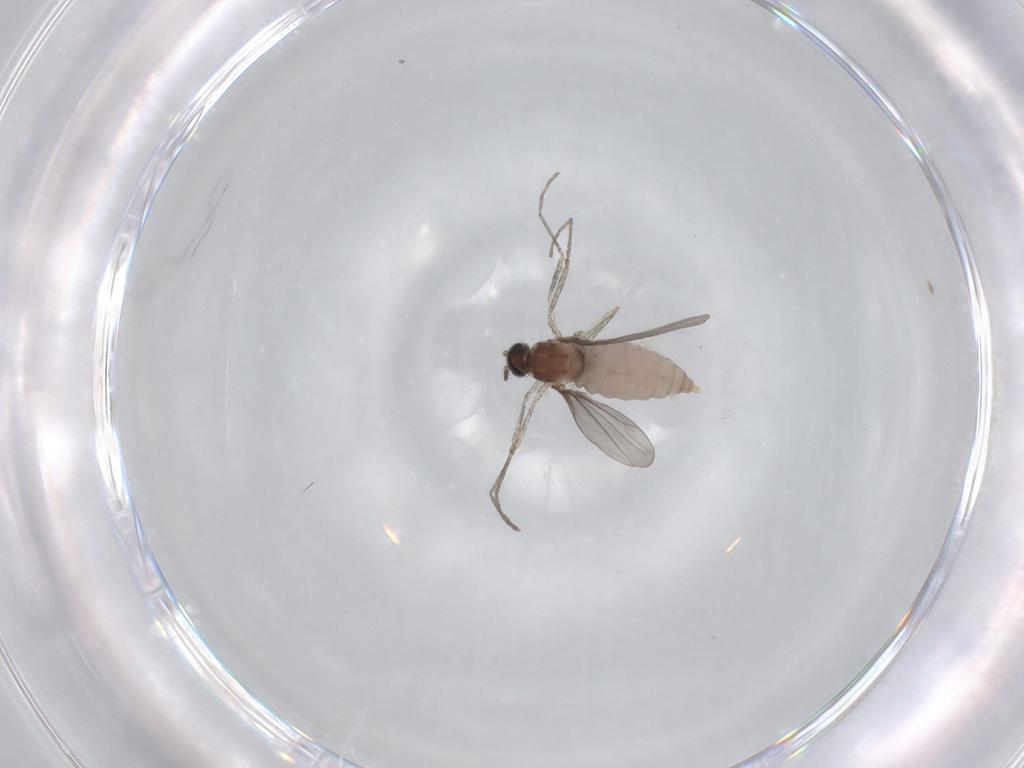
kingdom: Animalia
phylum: Arthropoda
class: Insecta
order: Diptera
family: Cecidomyiidae
